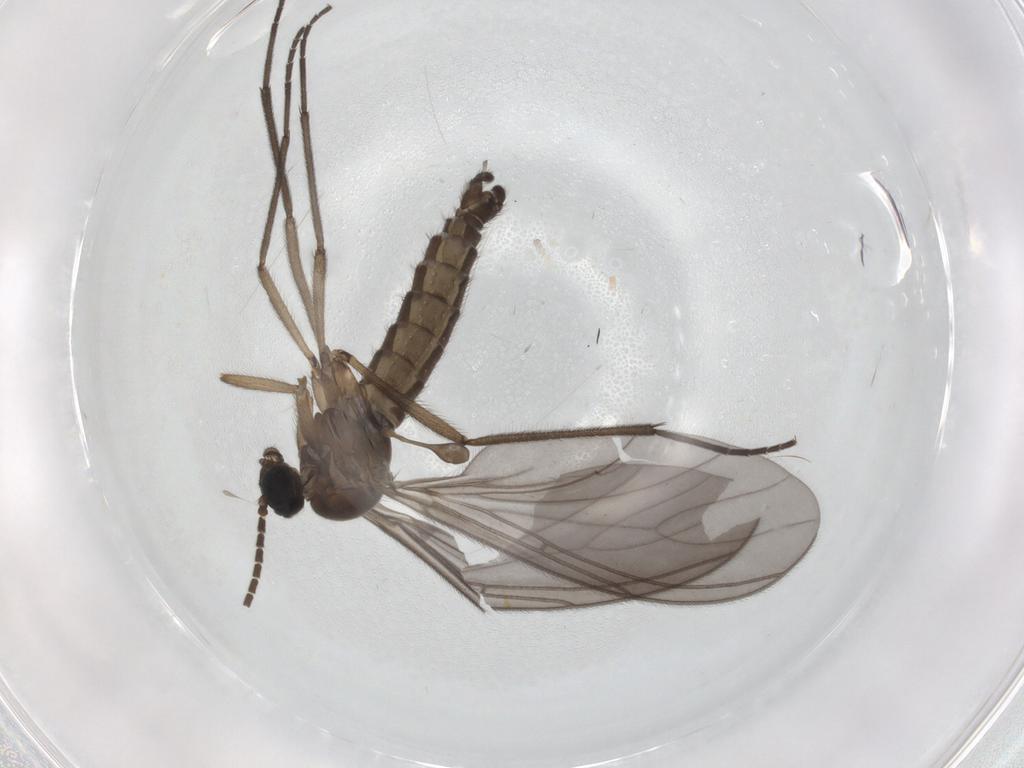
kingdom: Animalia
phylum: Arthropoda
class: Insecta
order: Diptera
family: Sciaridae
